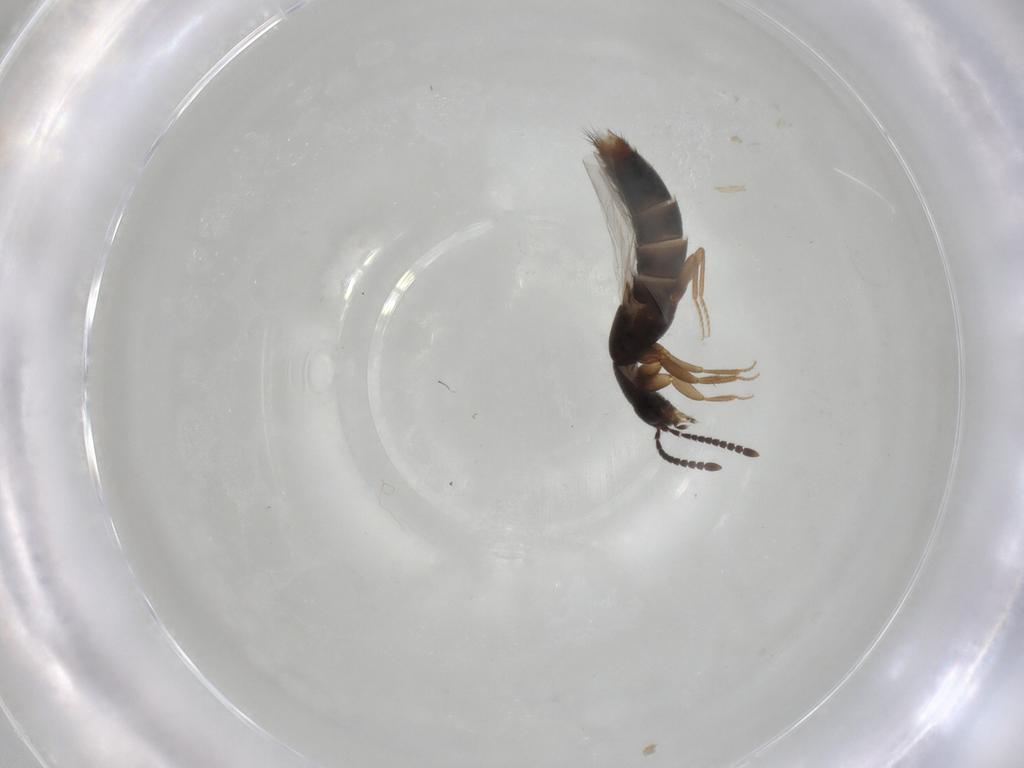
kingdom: Animalia
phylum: Arthropoda
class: Insecta
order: Coleoptera
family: Staphylinidae
